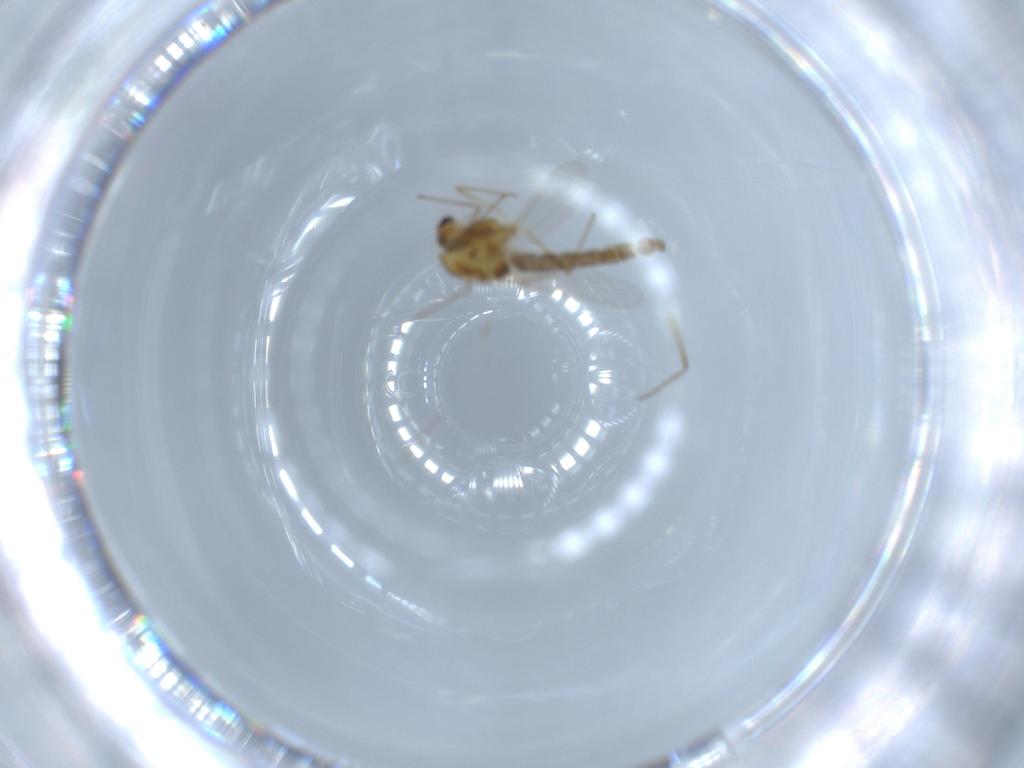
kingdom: Animalia
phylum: Arthropoda
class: Insecta
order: Diptera
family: Chironomidae
